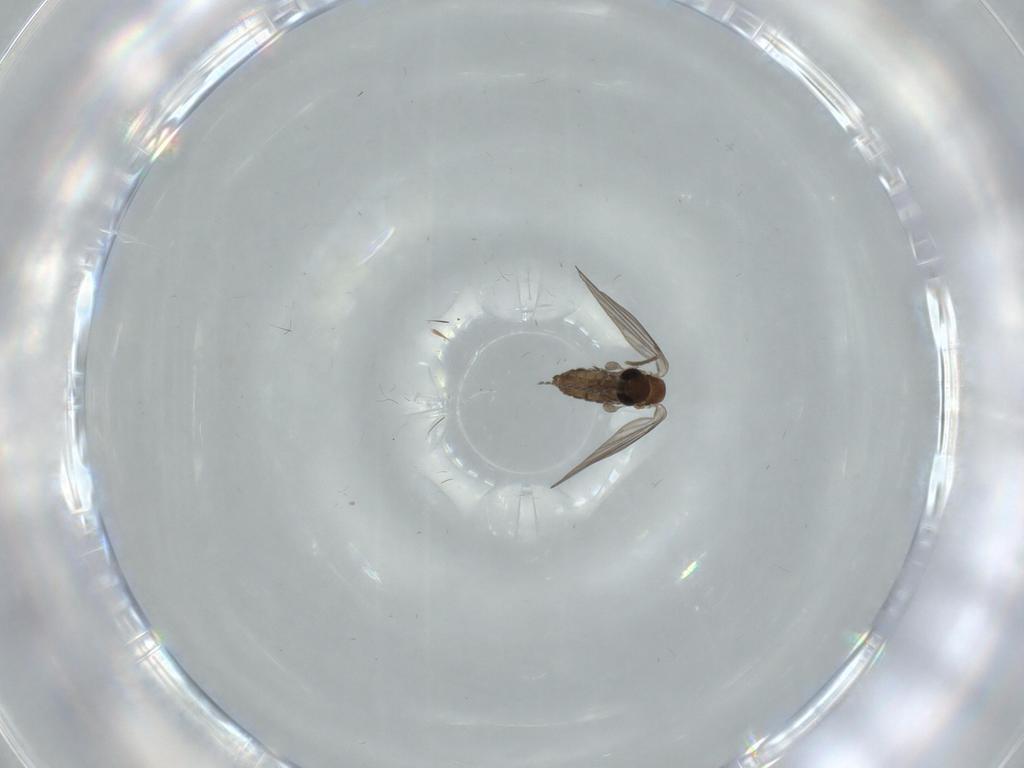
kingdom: Animalia
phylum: Arthropoda
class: Insecta
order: Diptera
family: Psychodidae
